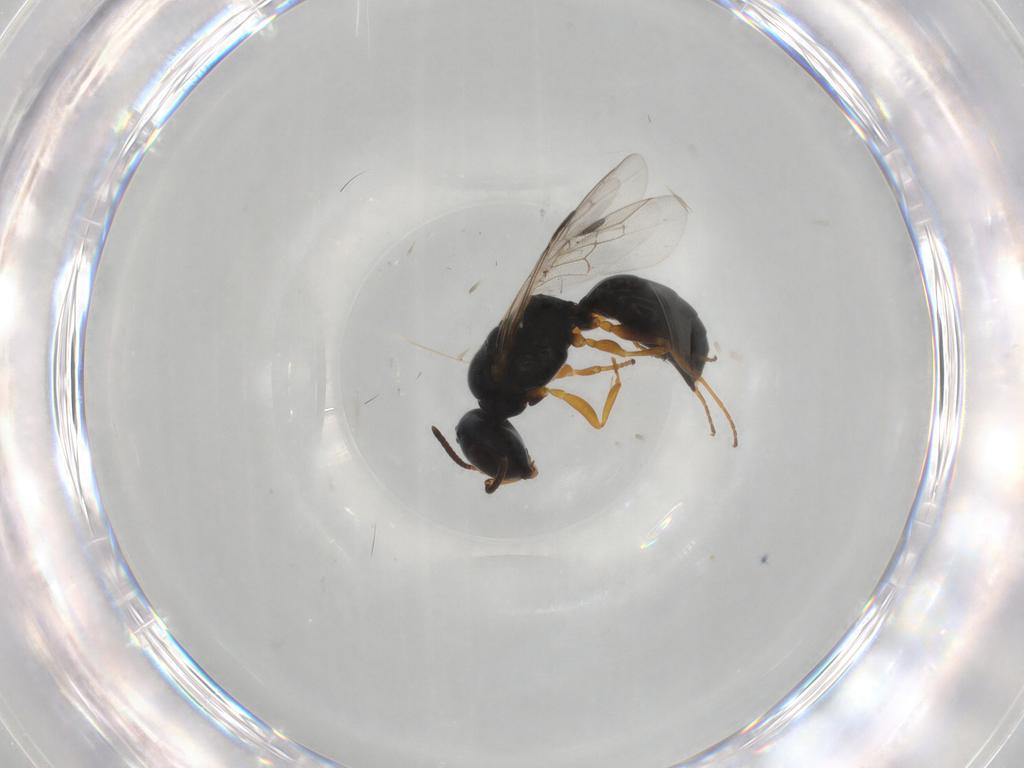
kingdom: Animalia
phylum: Arthropoda
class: Insecta
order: Hymenoptera
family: Crabronidae
